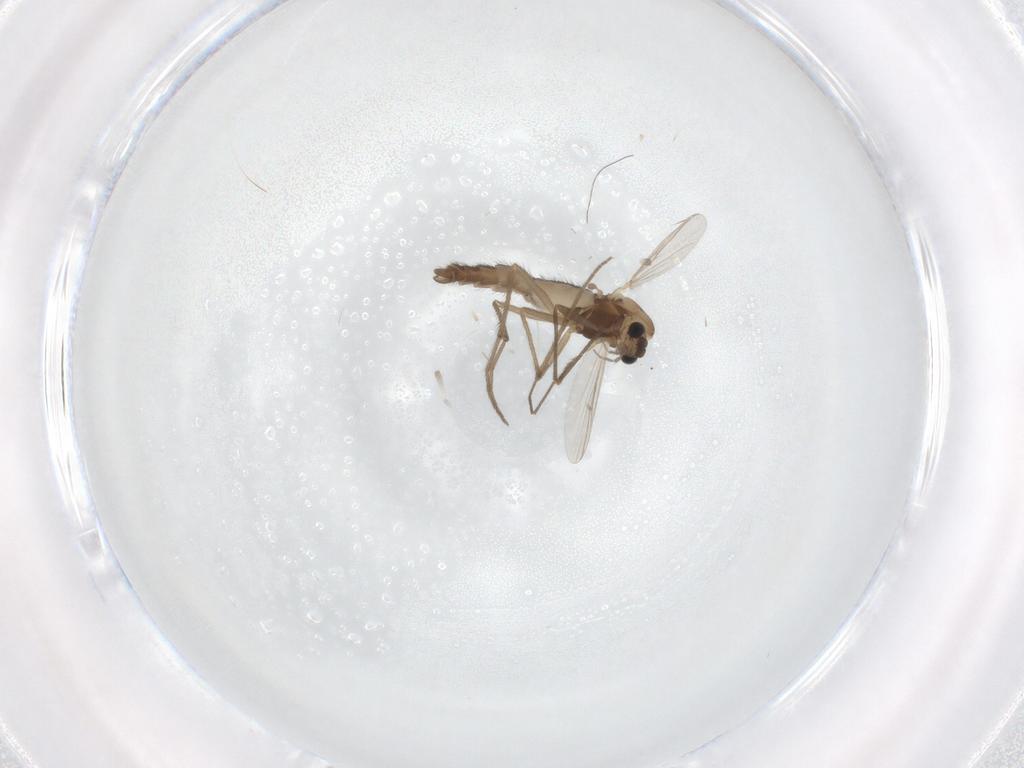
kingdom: Animalia
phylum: Arthropoda
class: Insecta
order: Diptera
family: Chironomidae
